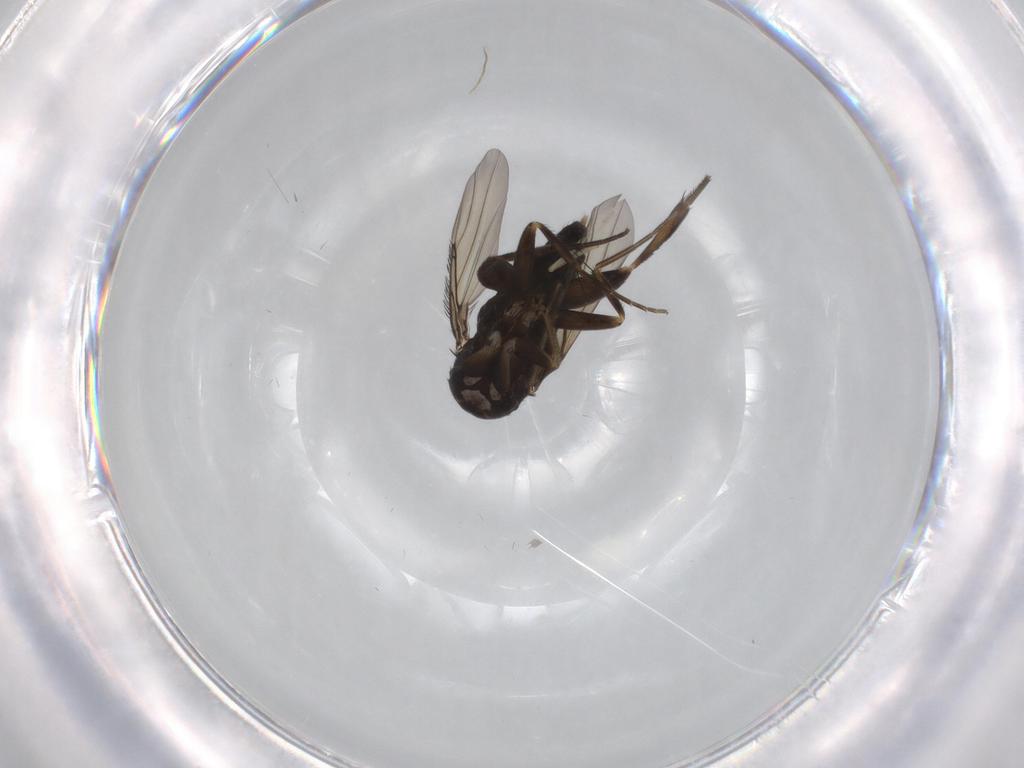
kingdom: Animalia
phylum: Arthropoda
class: Insecta
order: Diptera
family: Phoridae
